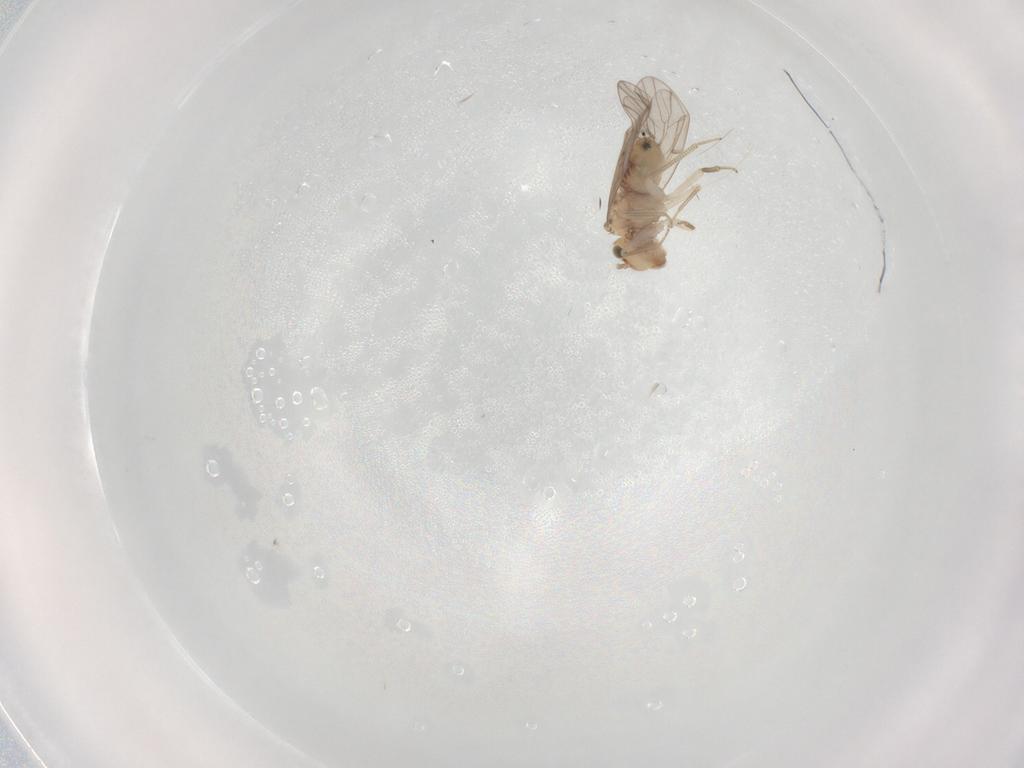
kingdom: Animalia
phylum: Arthropoda
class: Insecta
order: Psocodea
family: Ectopsocidae
